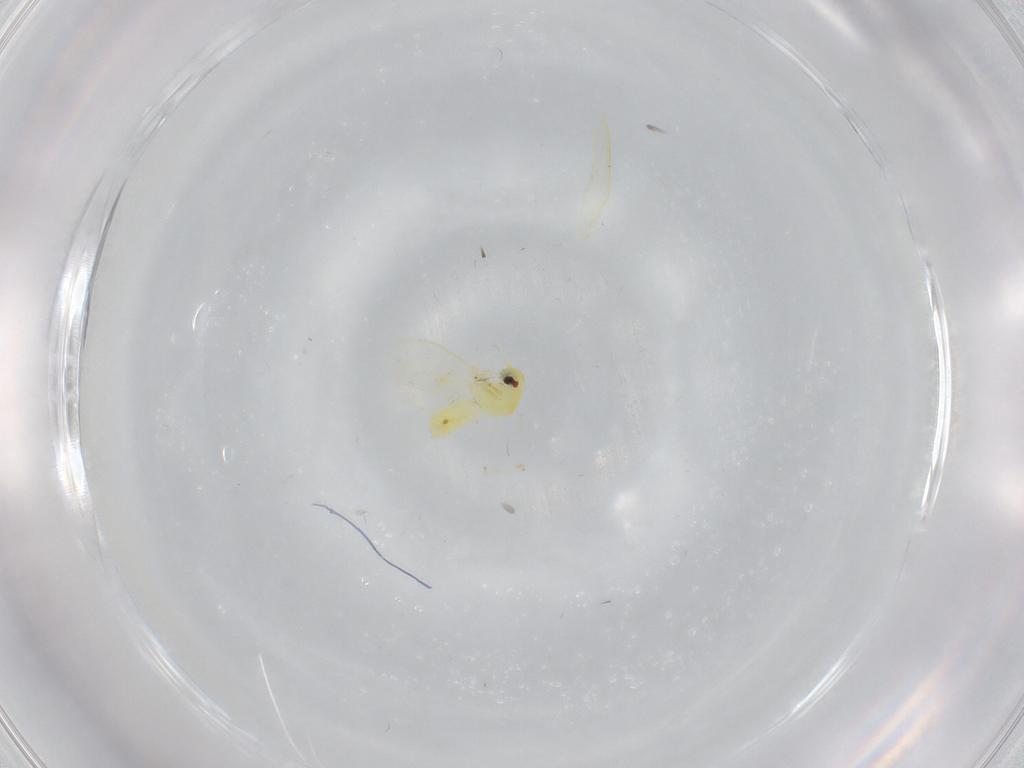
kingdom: Animalia
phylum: Arthropoda
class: Insecta
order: Hemiptera
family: Aleyrodidae
